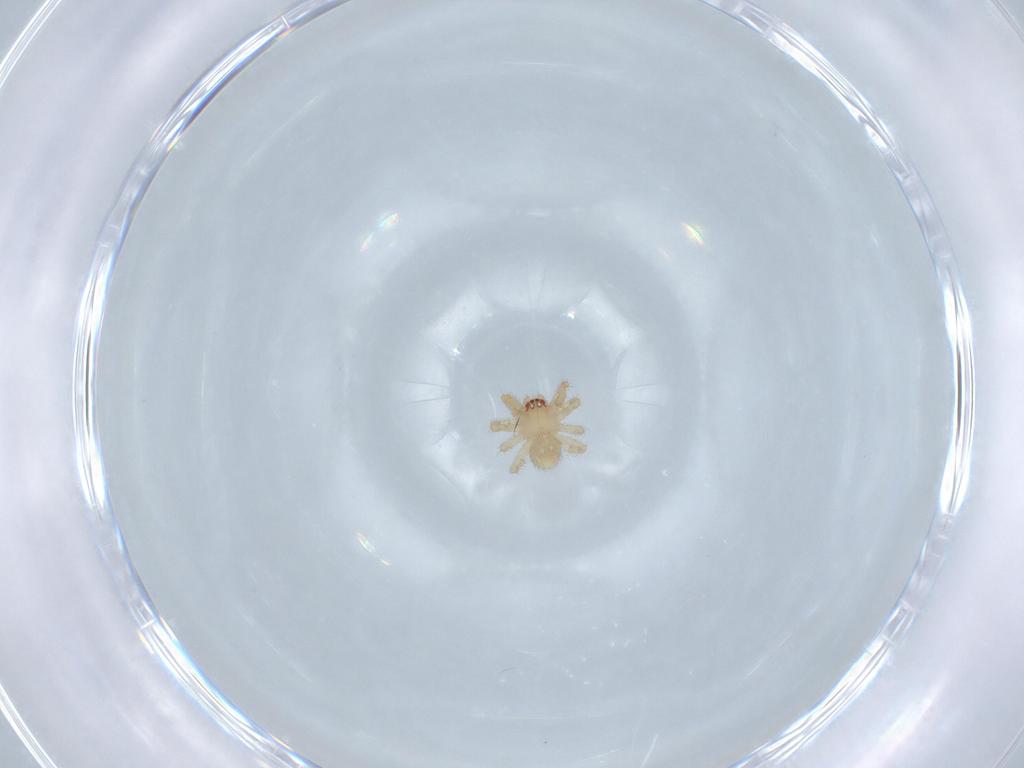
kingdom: Animalia
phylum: Arthropoda
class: Arachnida
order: Araneae
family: Theridiidae
